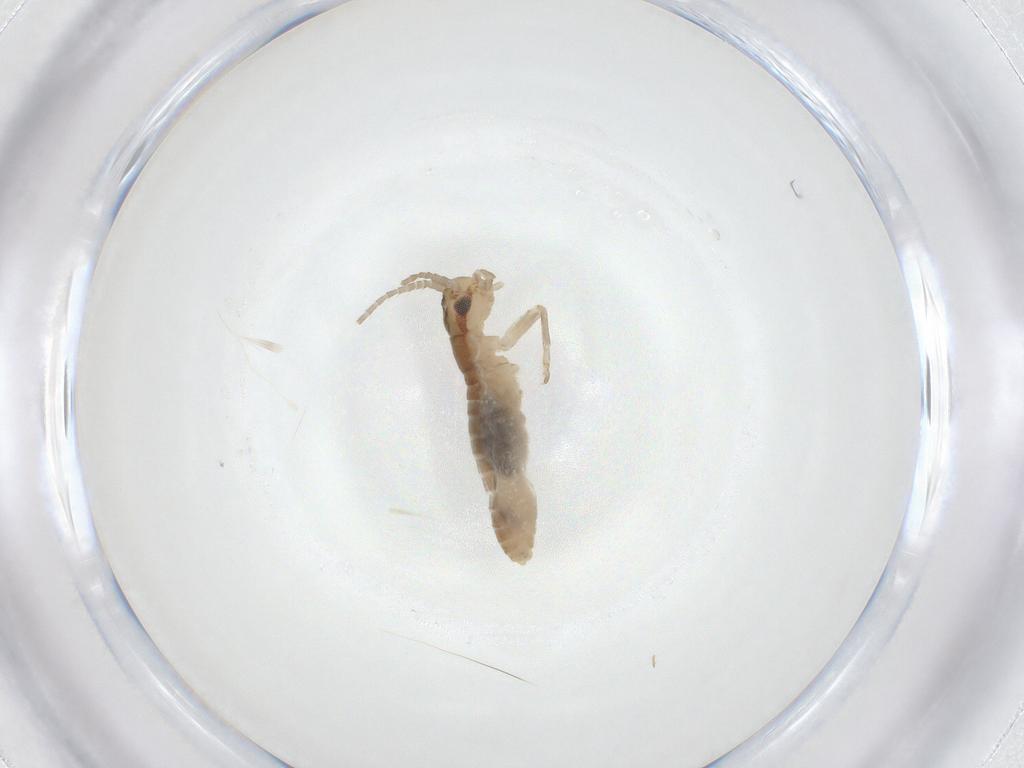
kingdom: Animalia
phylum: Arthropoda
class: Insecta
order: Orthoptera
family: Gryllidae
